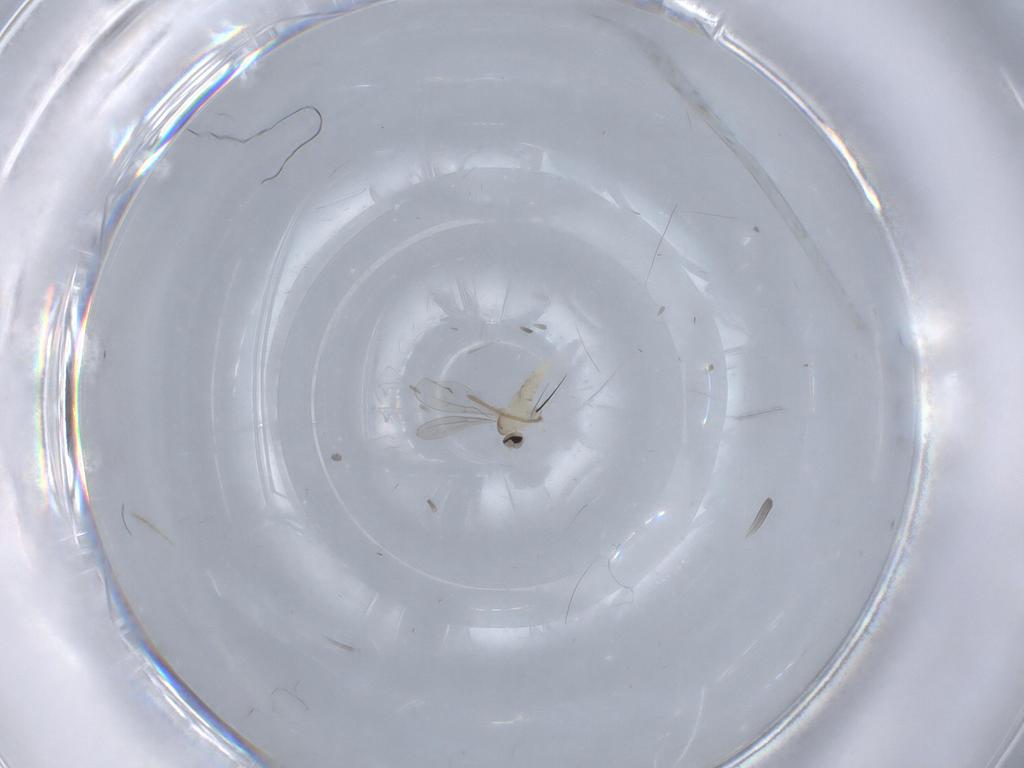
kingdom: Animalia
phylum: Arthropoda
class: Insecta
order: Diptera
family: Cecidomyiidae
